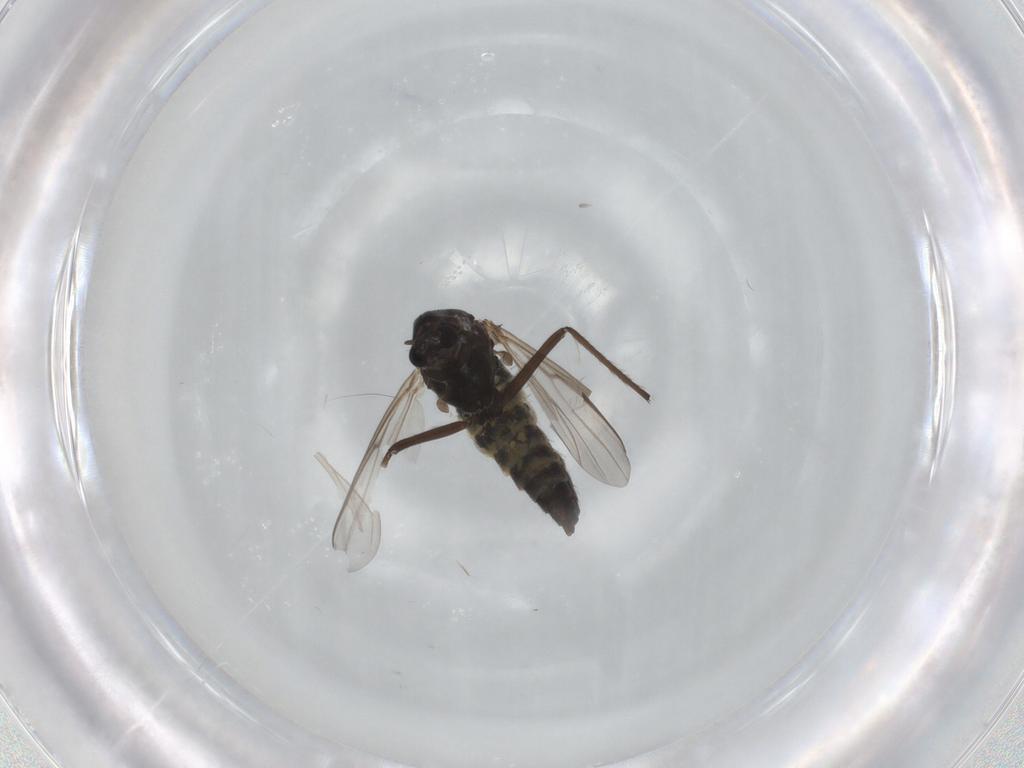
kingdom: Animalia
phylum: Arthropoda
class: Insecta
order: Diptera
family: Chironomidae
